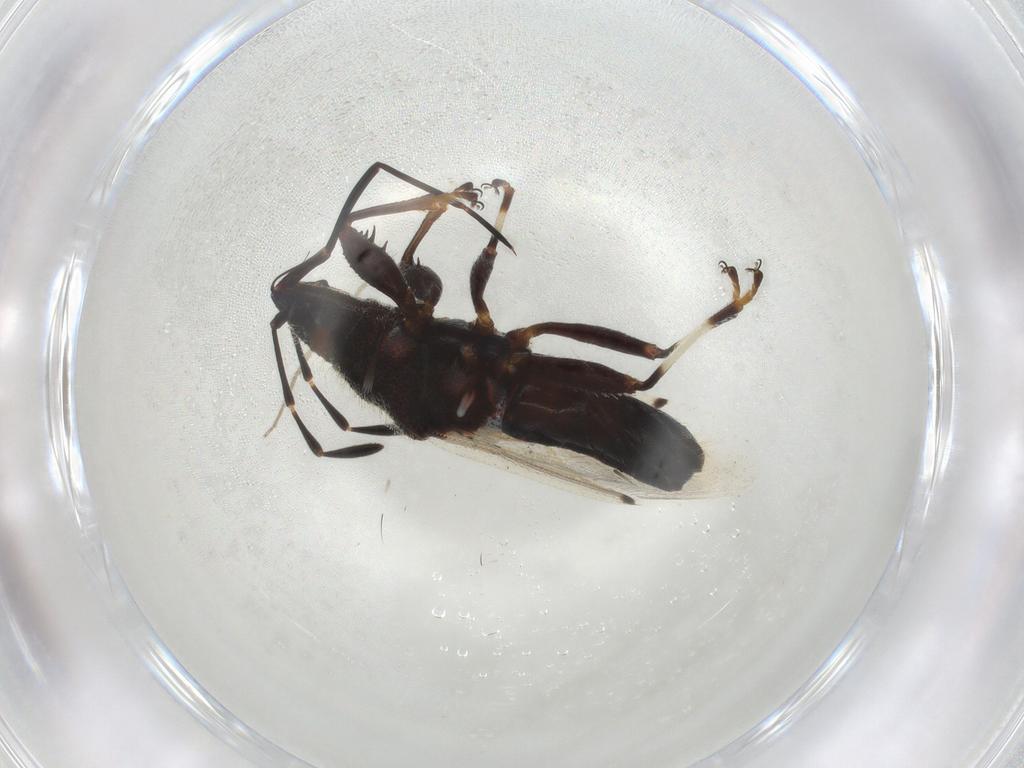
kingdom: Animalia
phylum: Arthropoda
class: Insecta
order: Hemiptera
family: Oxycarenidae
